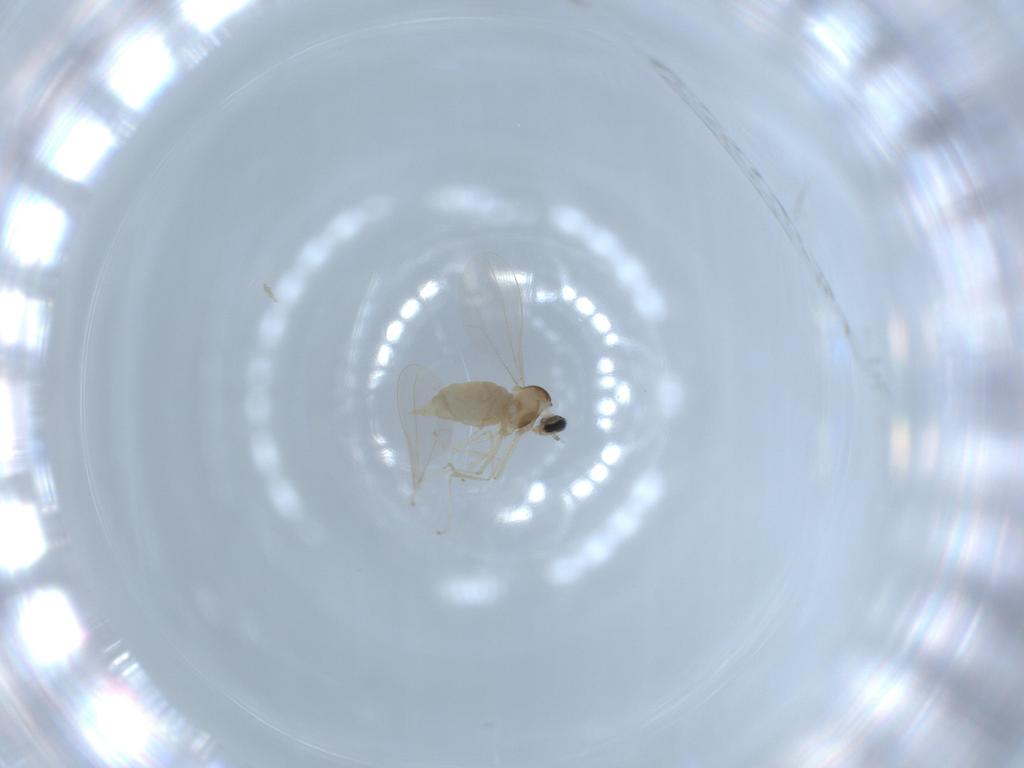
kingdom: Animalia
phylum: Arthropoda
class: Insecta
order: Diptera
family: Cecidomyiidae
